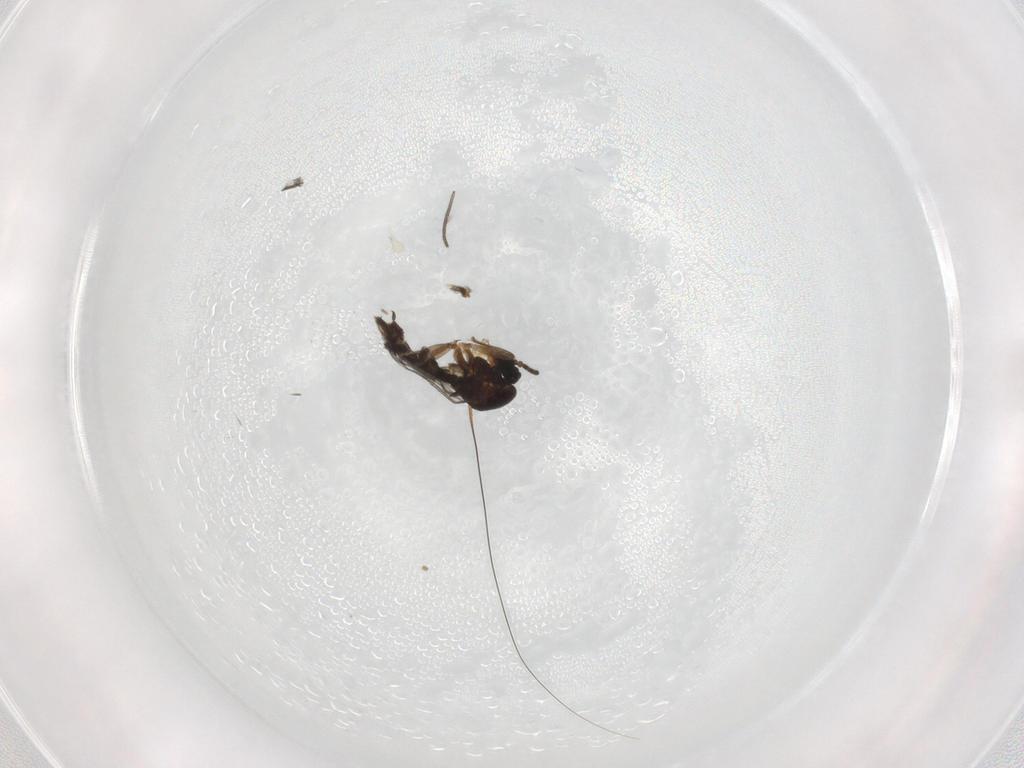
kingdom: Animalia
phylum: Arthropoda
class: Insecta
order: Diptera
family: Sciaridae
